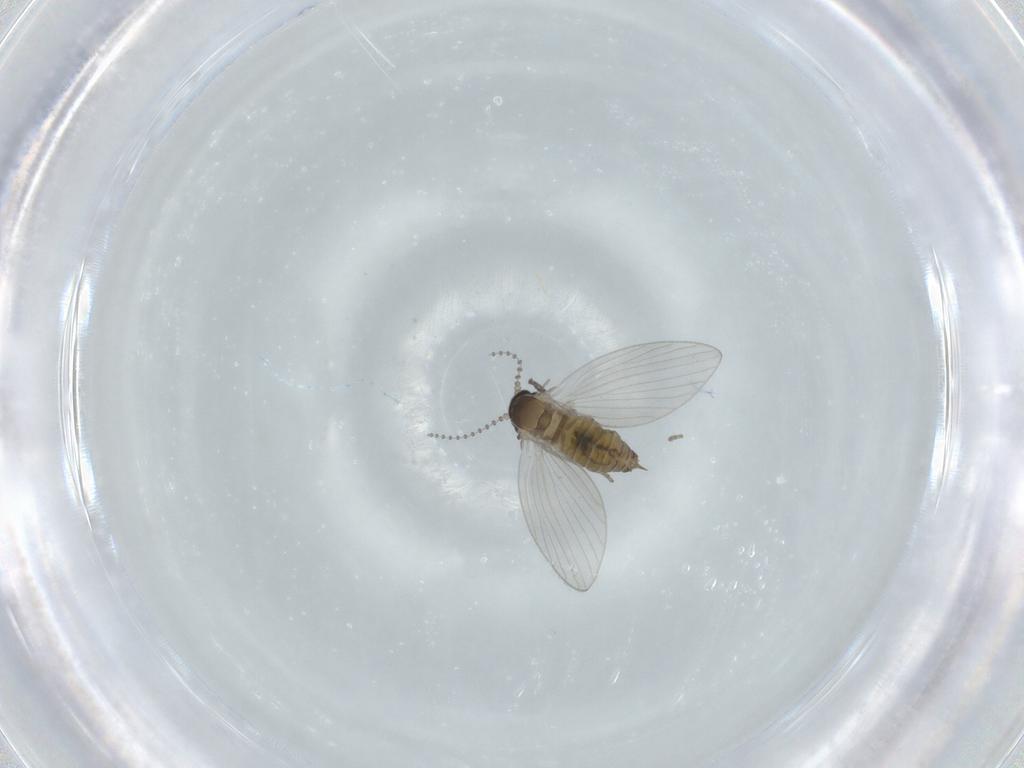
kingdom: Animalia
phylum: Arthropoda
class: Insecta
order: Diptera
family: Psychodidae
